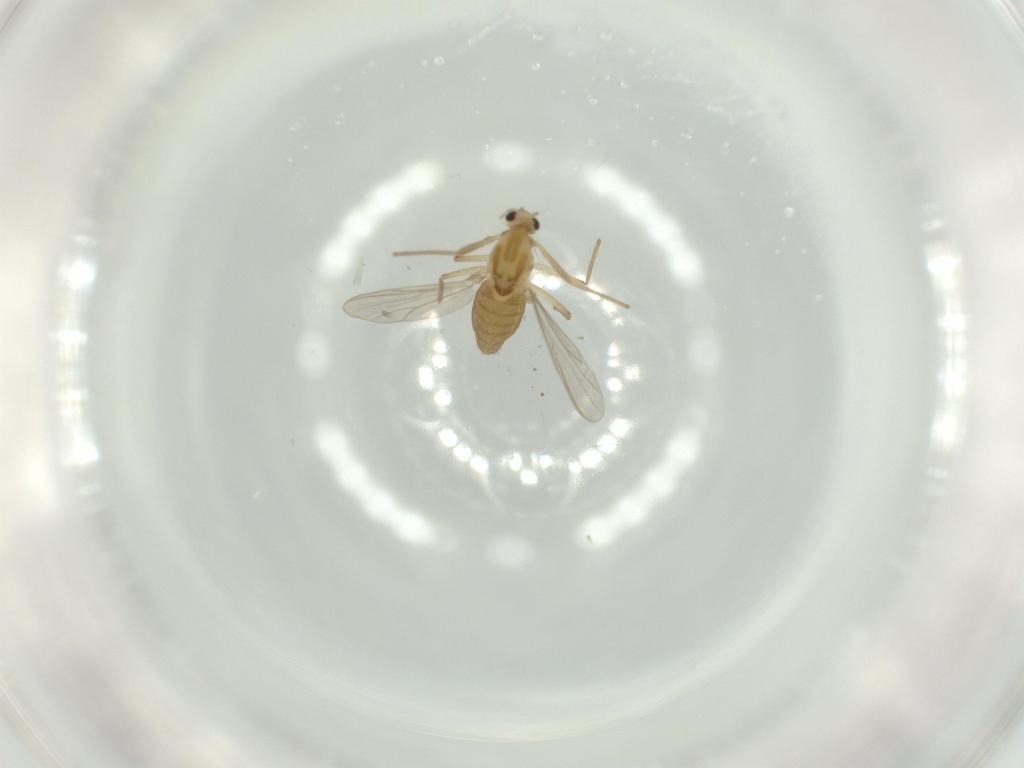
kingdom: Animalia
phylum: Arthropoda
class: Insecta
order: Diptera
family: Chironomidae
